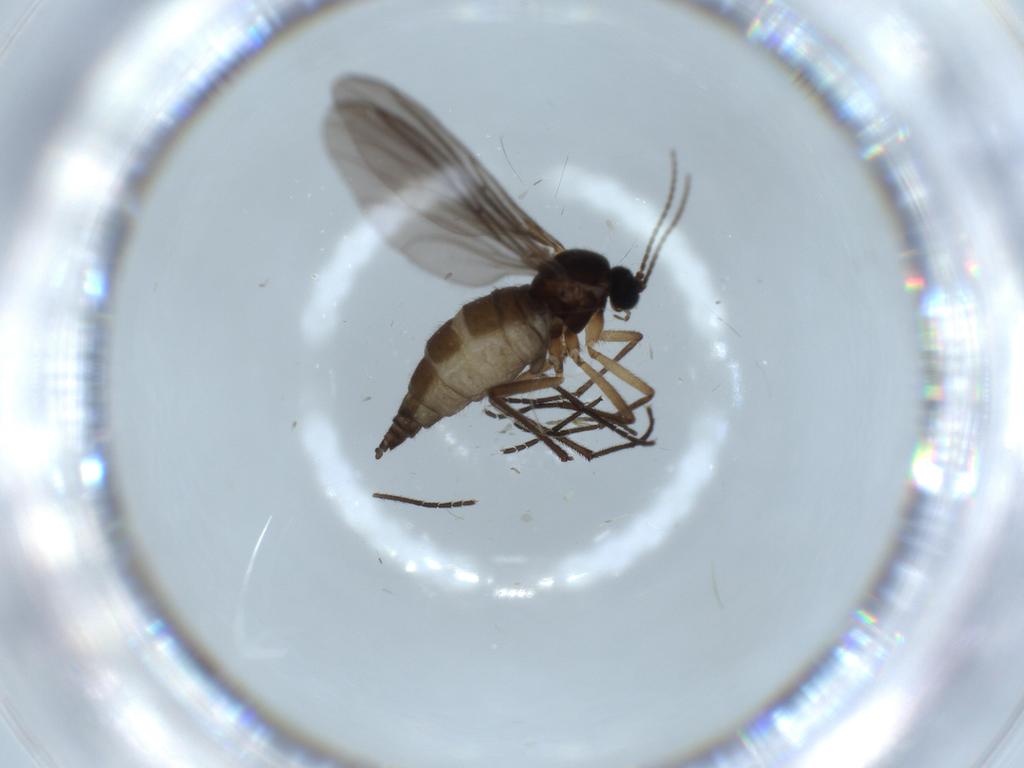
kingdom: Animalia
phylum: Arthropoda
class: Insecta
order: Diptera
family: Sciaridae
